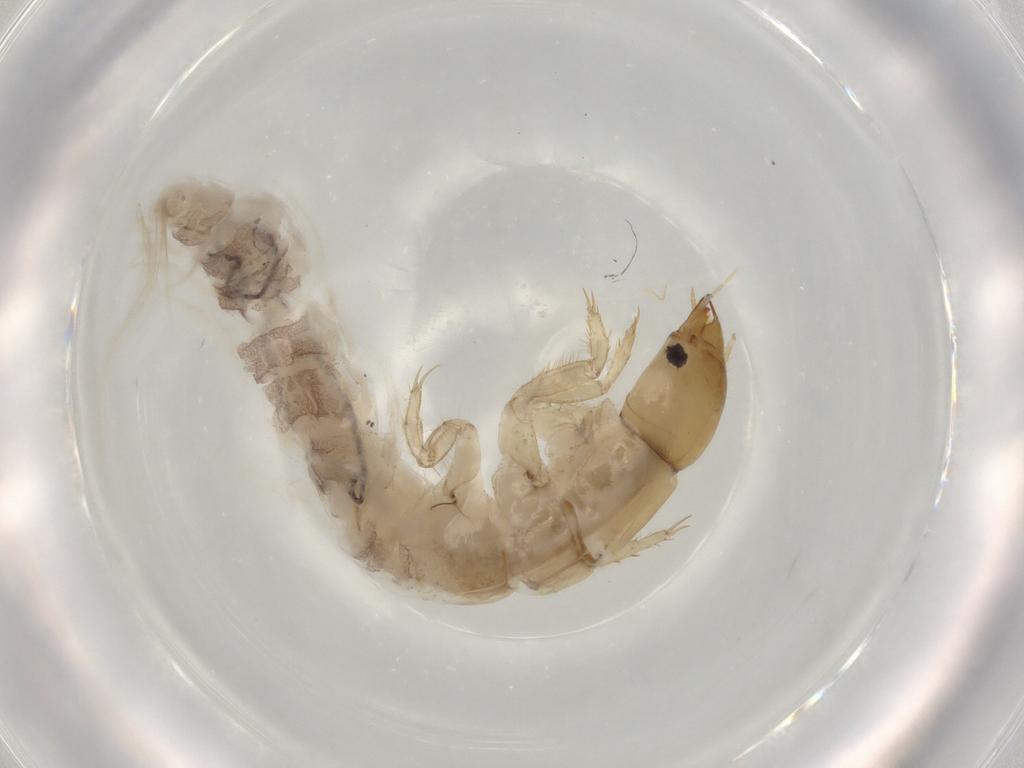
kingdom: Animalia
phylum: Arthropoda
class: Insecta
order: Megaloptera
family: Sialidae
